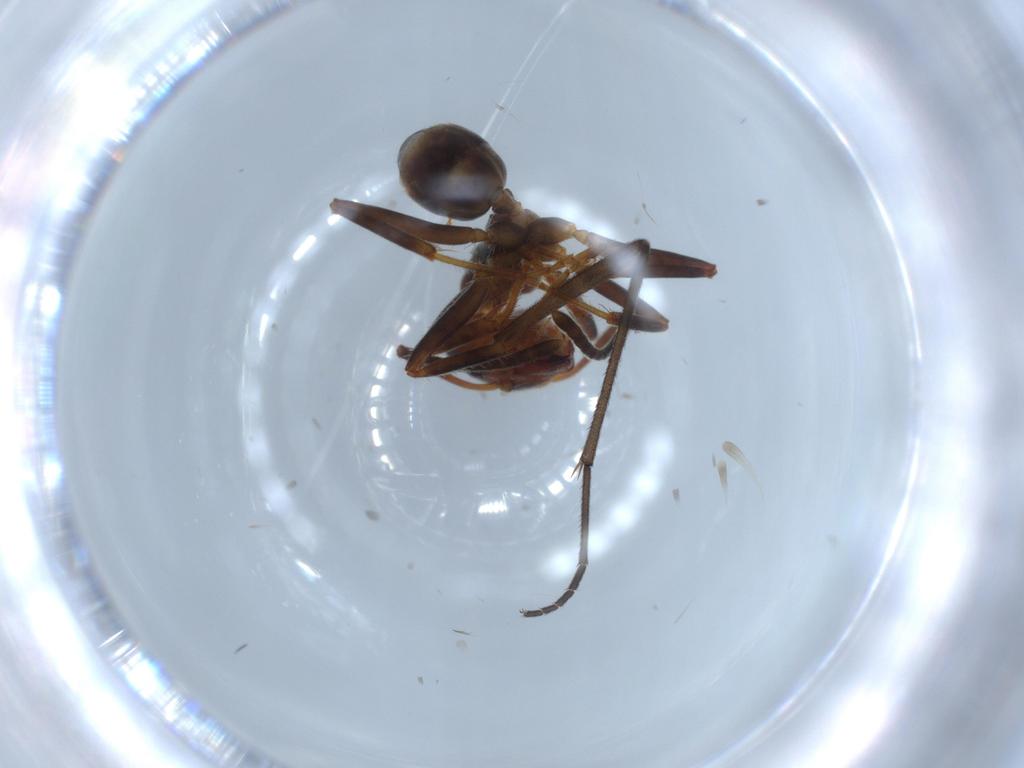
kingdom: Animalia
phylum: Arthropoda
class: Insecta
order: Hymenoptera
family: Formicidae
